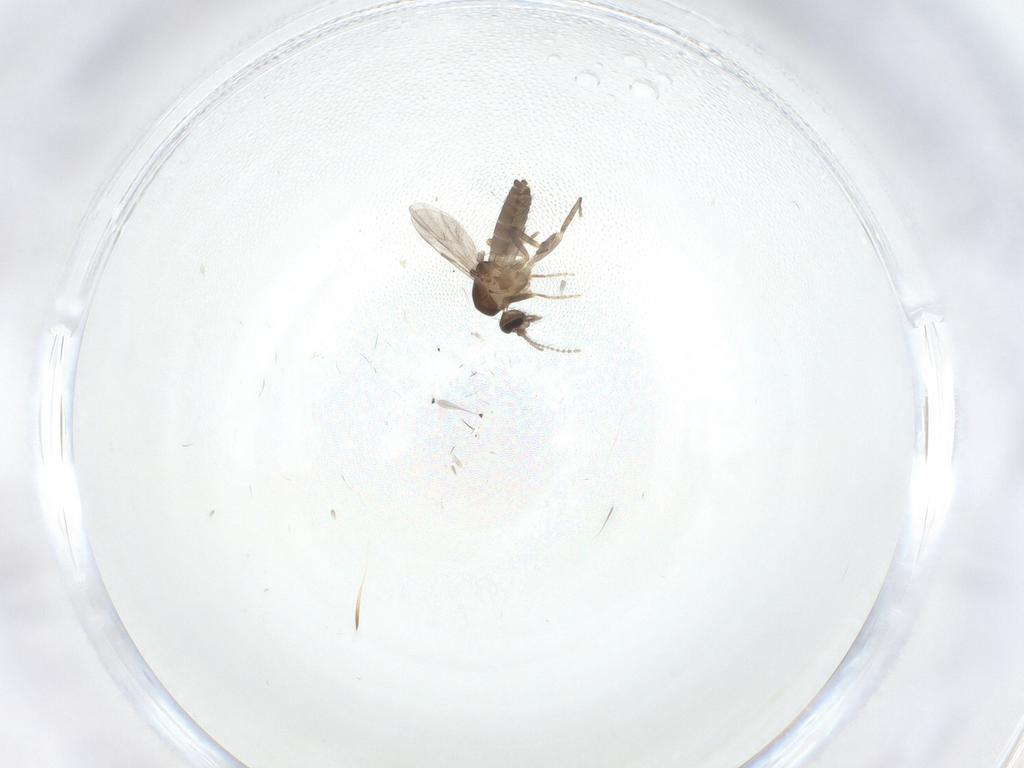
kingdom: Animalia
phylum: Arthropoda
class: Insecta
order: Diptera
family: Ceratopogonidae
